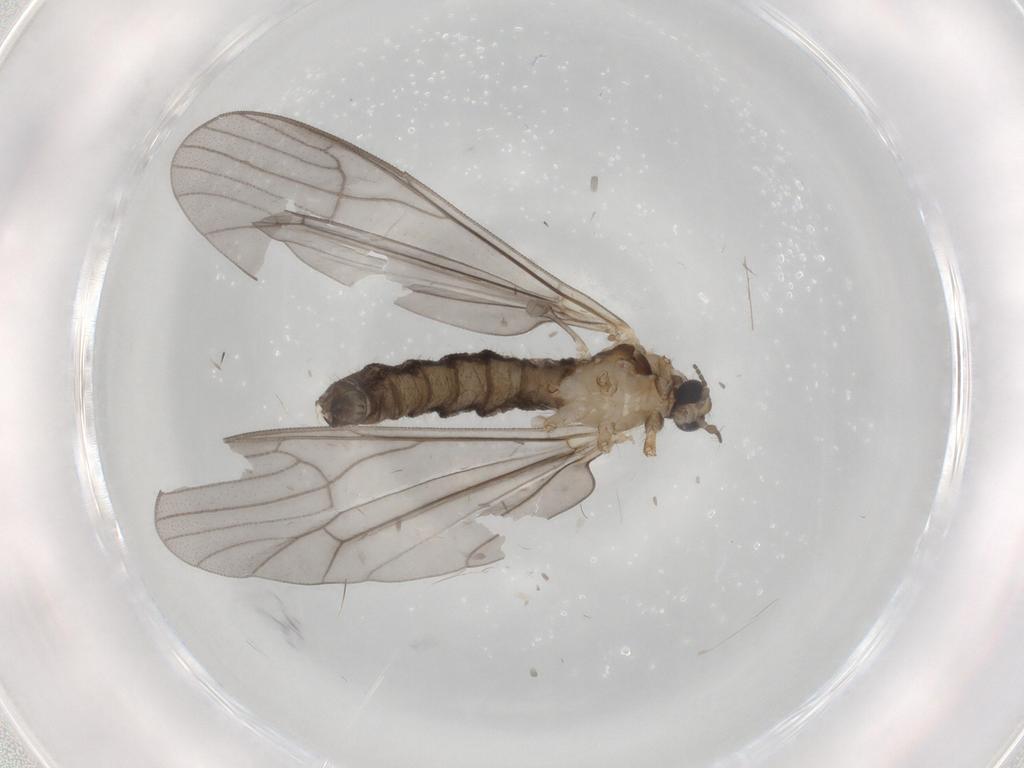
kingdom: Animalia
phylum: Arthropoda
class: Insecta
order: Diptera
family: Limoniidae
